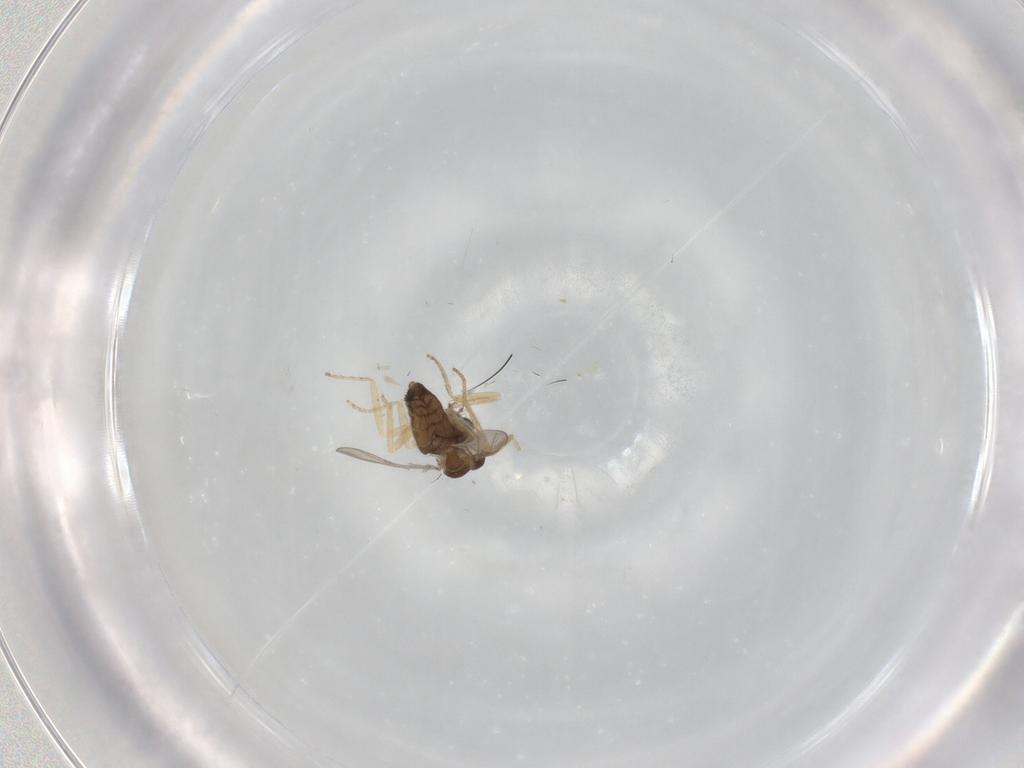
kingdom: Animalia
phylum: Arthropoda
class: Insecta
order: Diptera
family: Ceratopogonidae
